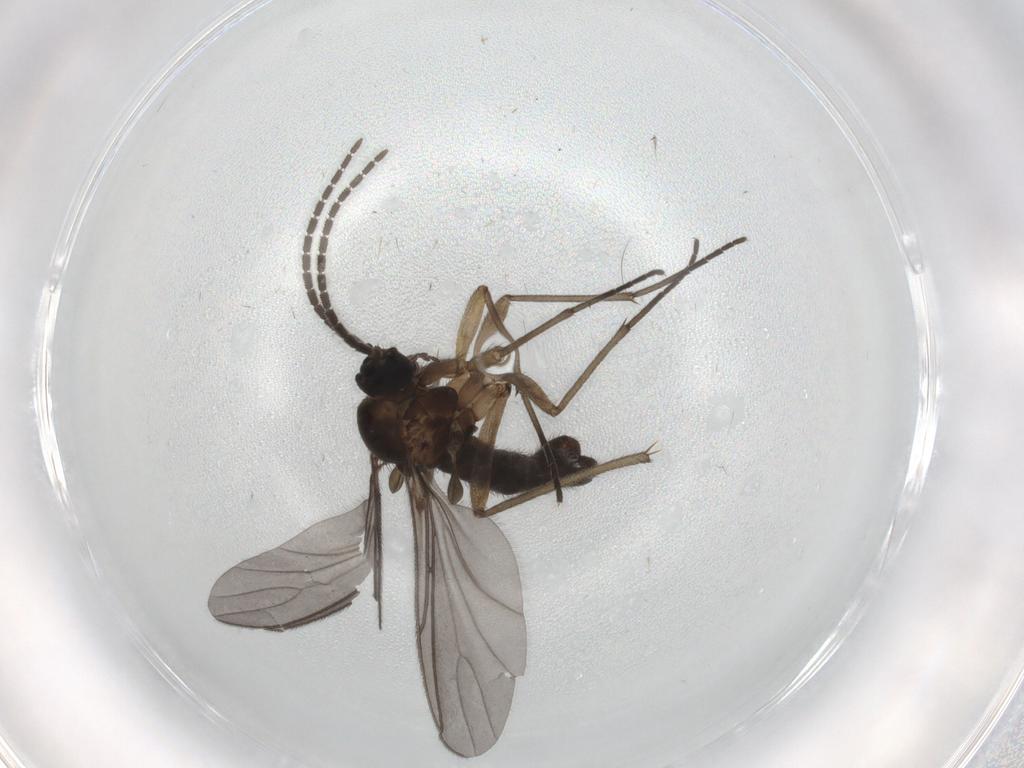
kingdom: Animalia
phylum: Arthropoda
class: Insecta
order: Diptera
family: Sciaridae
